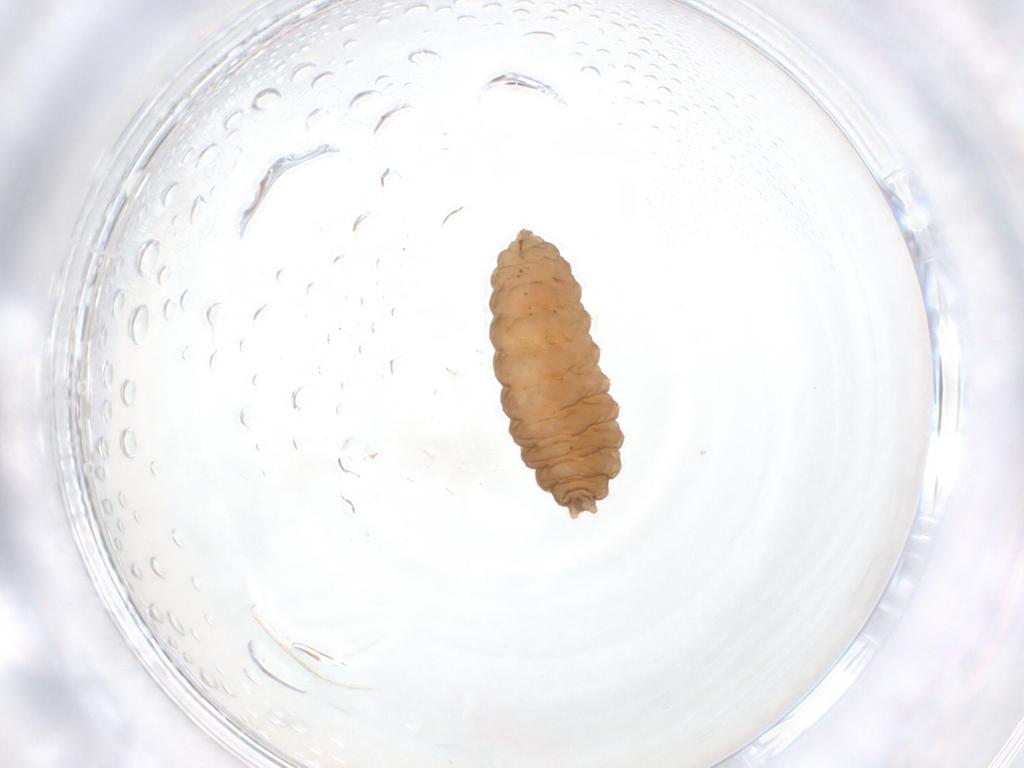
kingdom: Animalia
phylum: Arthropoda
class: Insecta
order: Diptera
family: Cecidomyiidae
